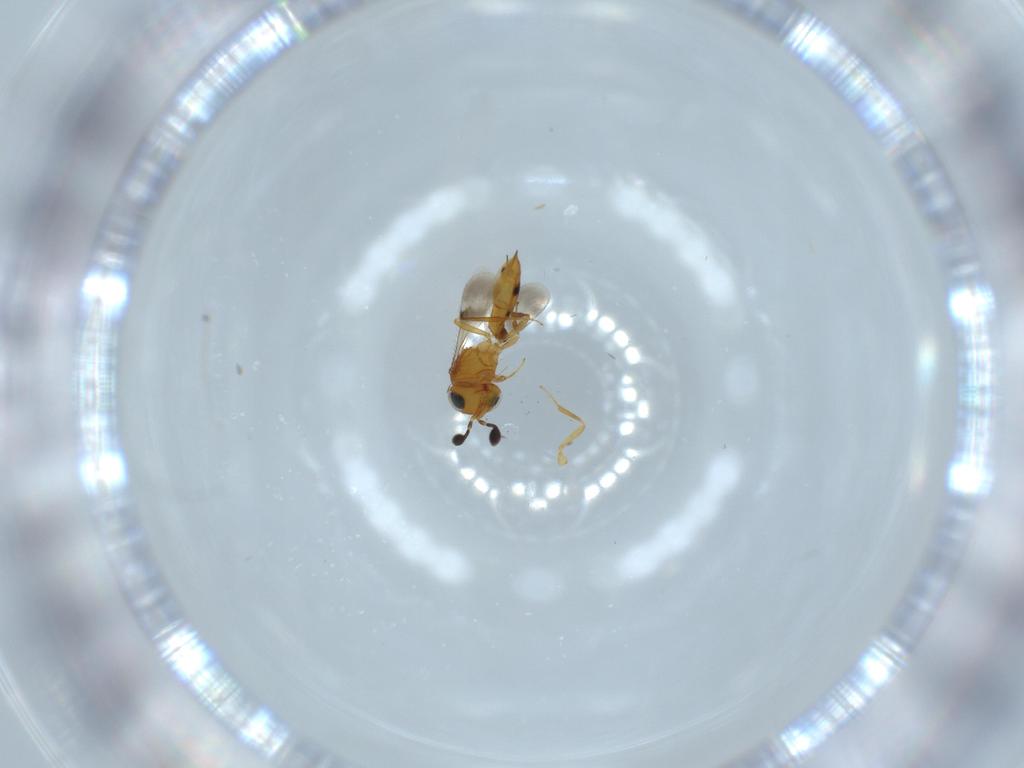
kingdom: Animalia
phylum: Arthropoda
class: Insecta
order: Hymenoptera
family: Scelionidae
